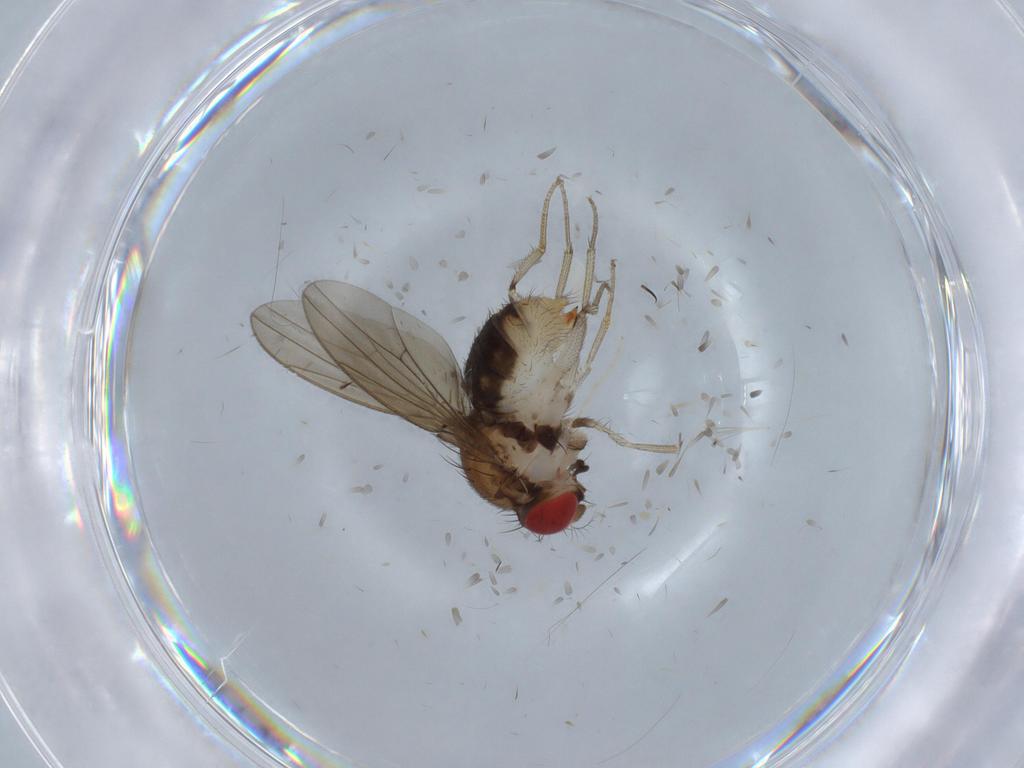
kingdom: Animalia
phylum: Arthropoda
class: Insecta
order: Diptera
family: Drosophilidae
